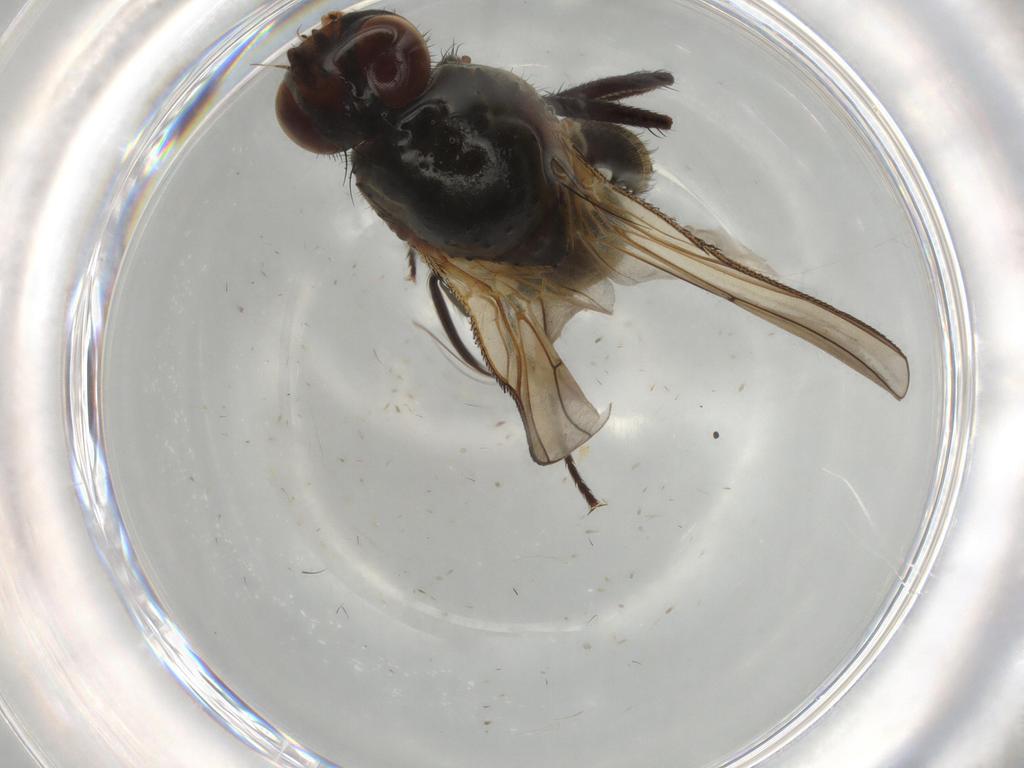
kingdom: Animalia
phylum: Arthropoda
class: Insecta
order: Diptera
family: Anthomyiidae
